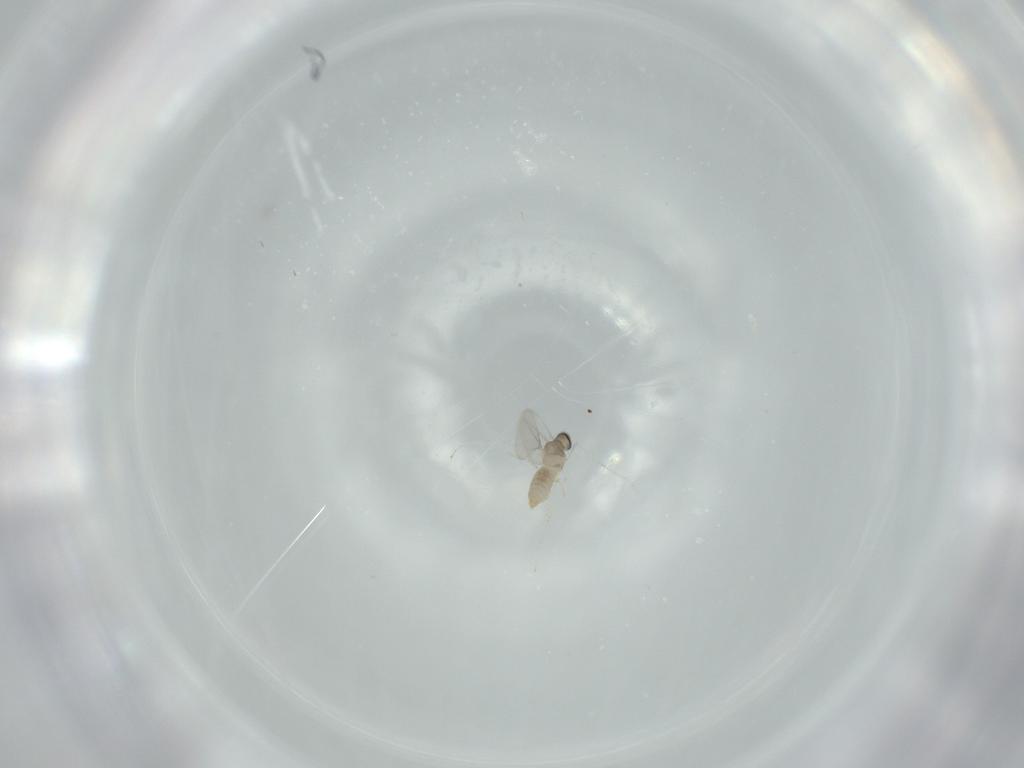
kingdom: Animalia
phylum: Arthropoda
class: Insecta
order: Diptera
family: Cecidomyiidae
